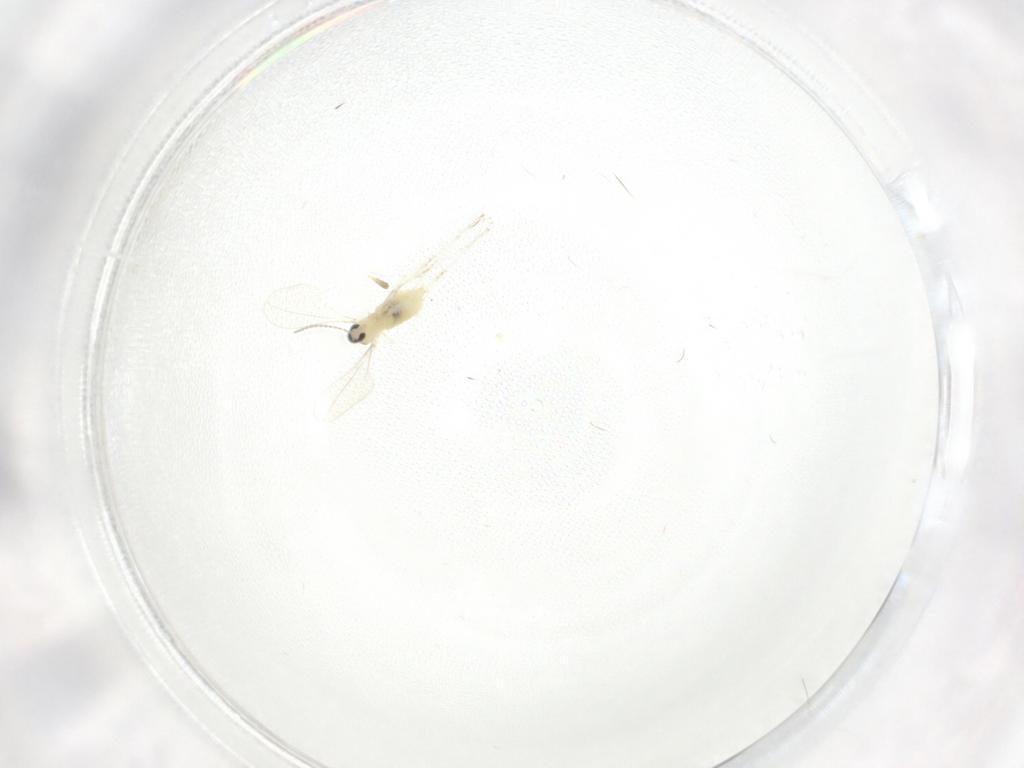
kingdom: Animalia
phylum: Arthropoda
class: Insecta
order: Diptera
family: Cecidomyiidae
